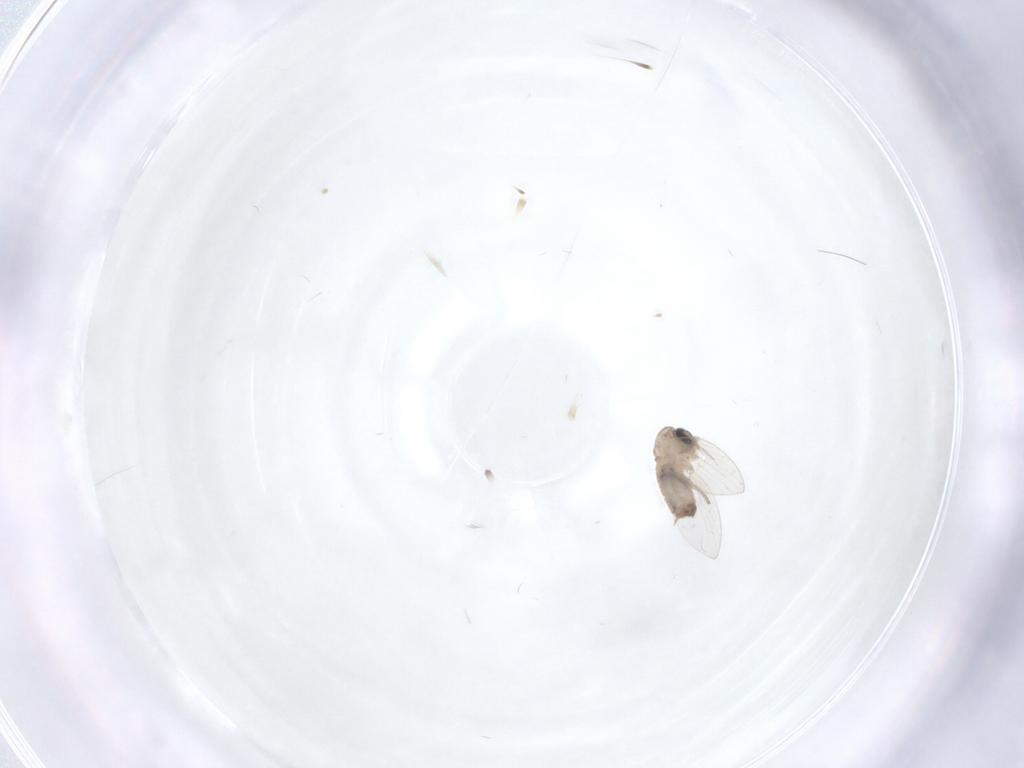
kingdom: Animalia
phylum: Arthropoda
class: Insecta
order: Diptera
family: Psychodidae
